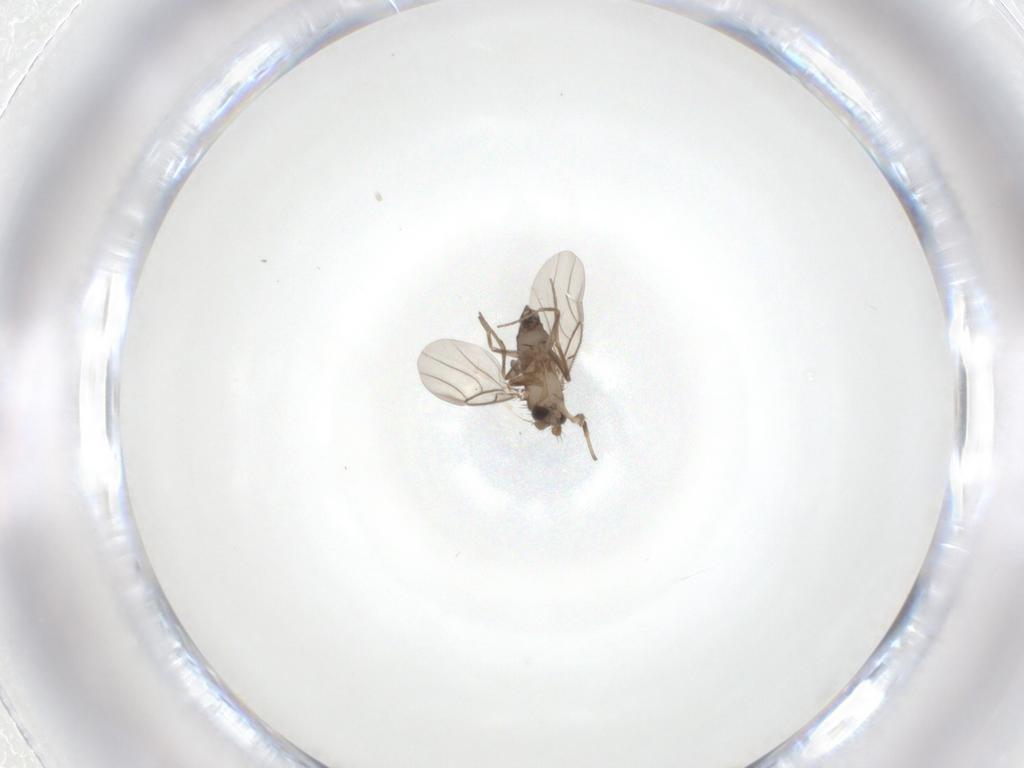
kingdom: Animalia
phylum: Arthropoda
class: Insecta
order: Diptera
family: Phoridae
